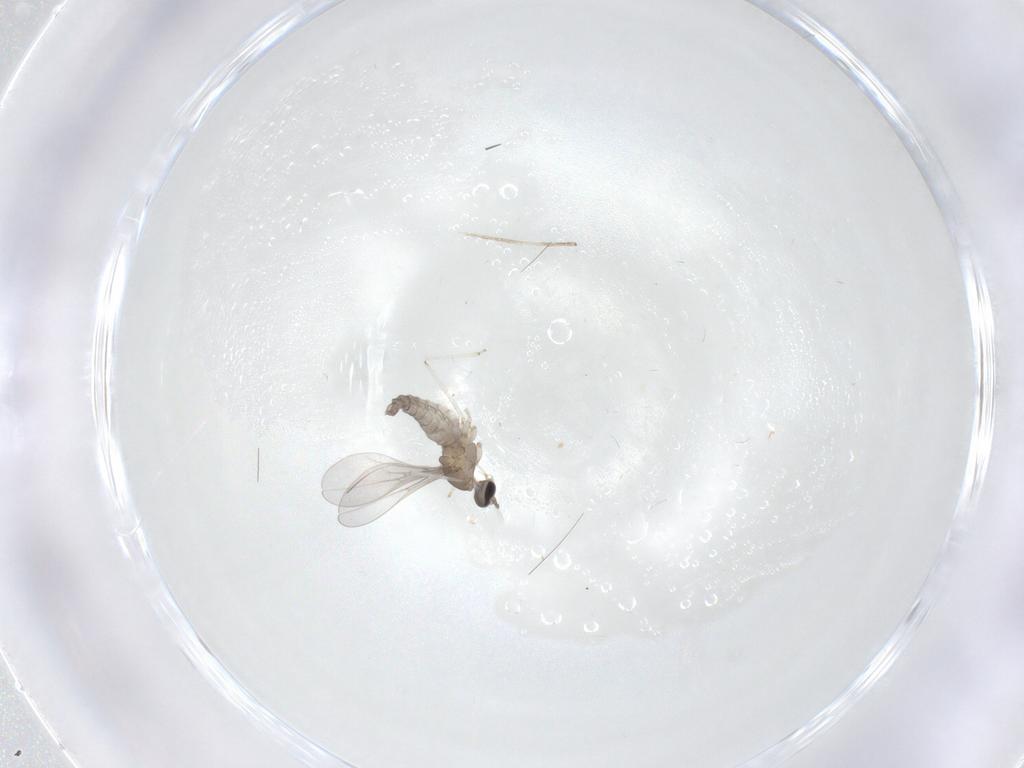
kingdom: Animalia
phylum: Arthropoda
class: Insecta
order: Diptera
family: Cecidomyiidae
